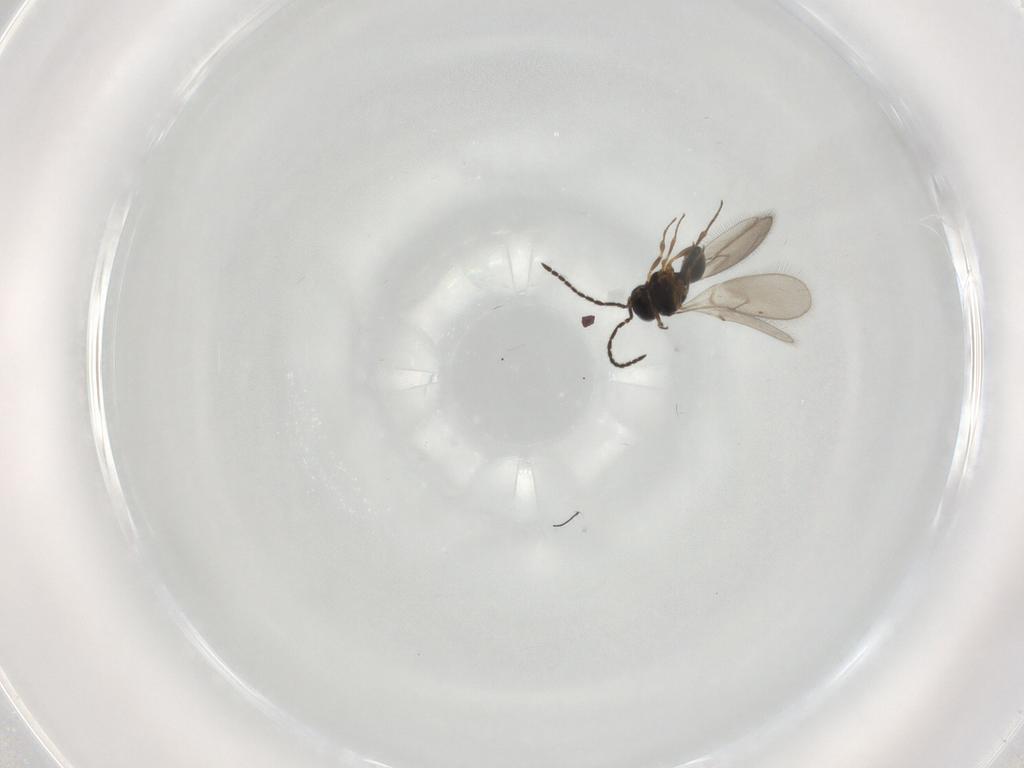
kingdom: Animalia
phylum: Arthropoda
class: Insecta
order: Hymenoptera
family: Scelionidae
